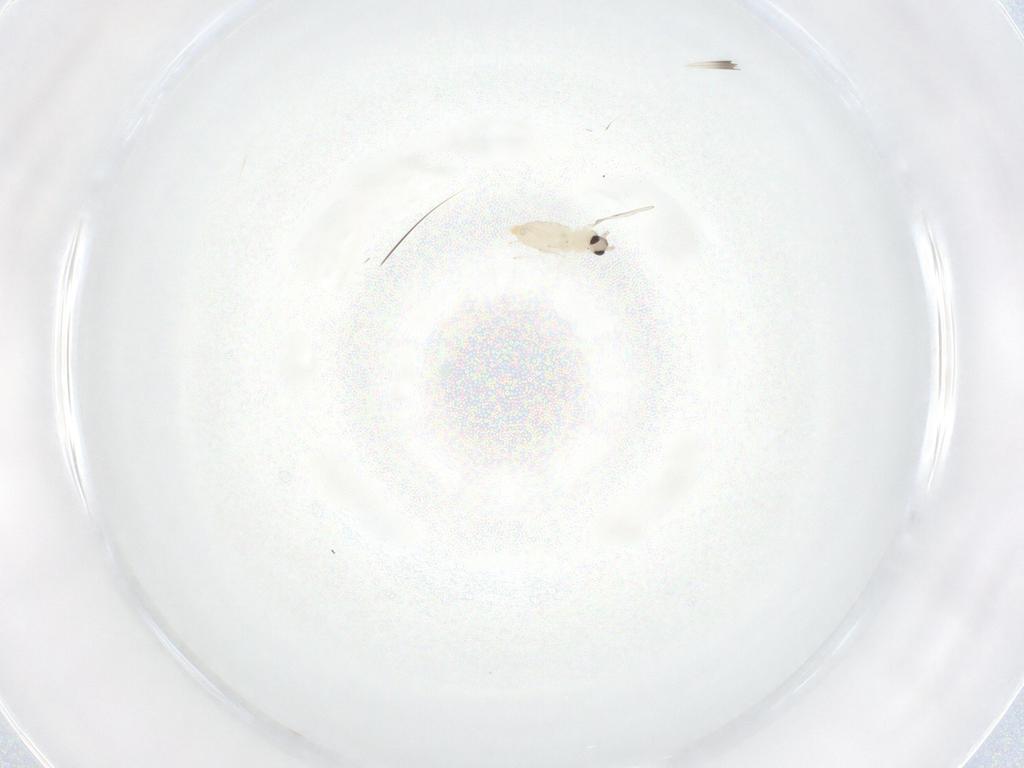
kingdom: Animalia
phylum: Arthropoda
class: Insecta
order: Diptera
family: Cecidomyiidae
